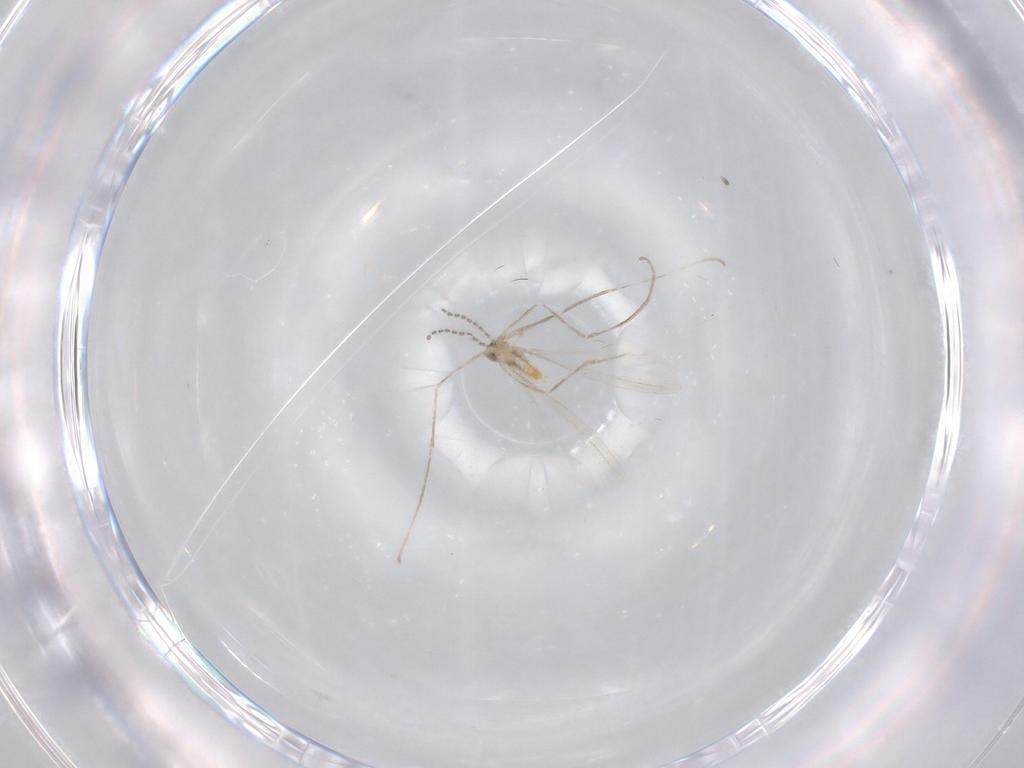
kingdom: Animalia
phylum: Arthropoda
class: Insecta
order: Diptera
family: Cecidomyiidae
